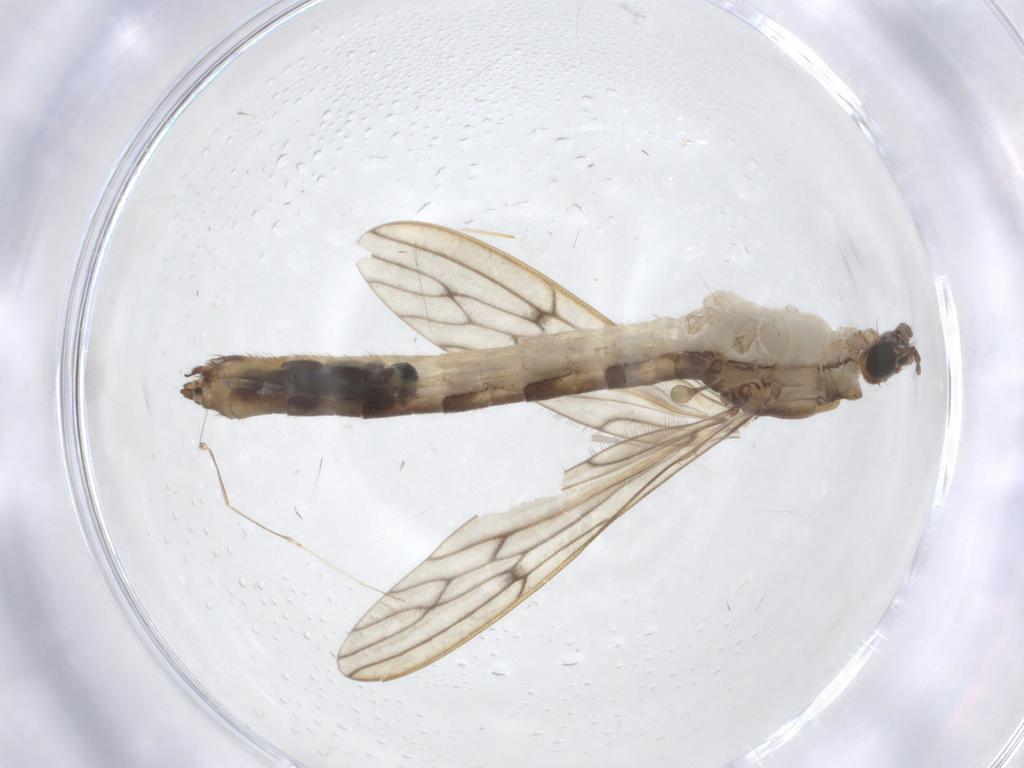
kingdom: Animalia
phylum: Arthropoda
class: Insecta
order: Diptera
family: Limoniidae
